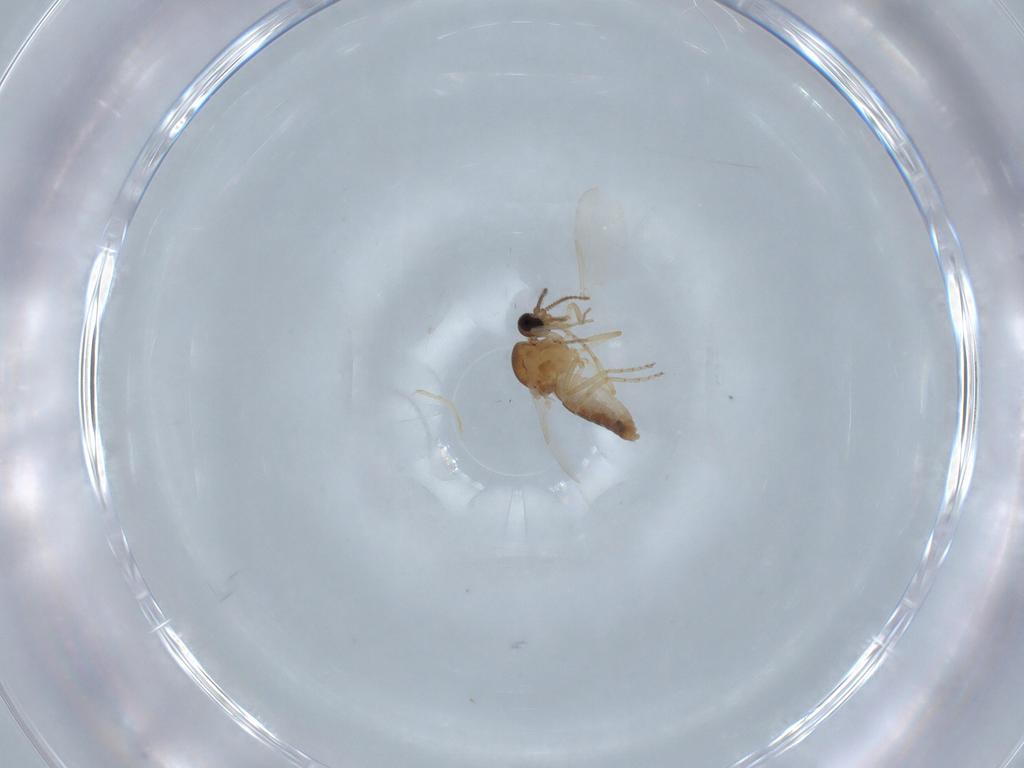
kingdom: Animalia
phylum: Arthropoda
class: Insecta
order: Diptera
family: Ceratopogonidae
